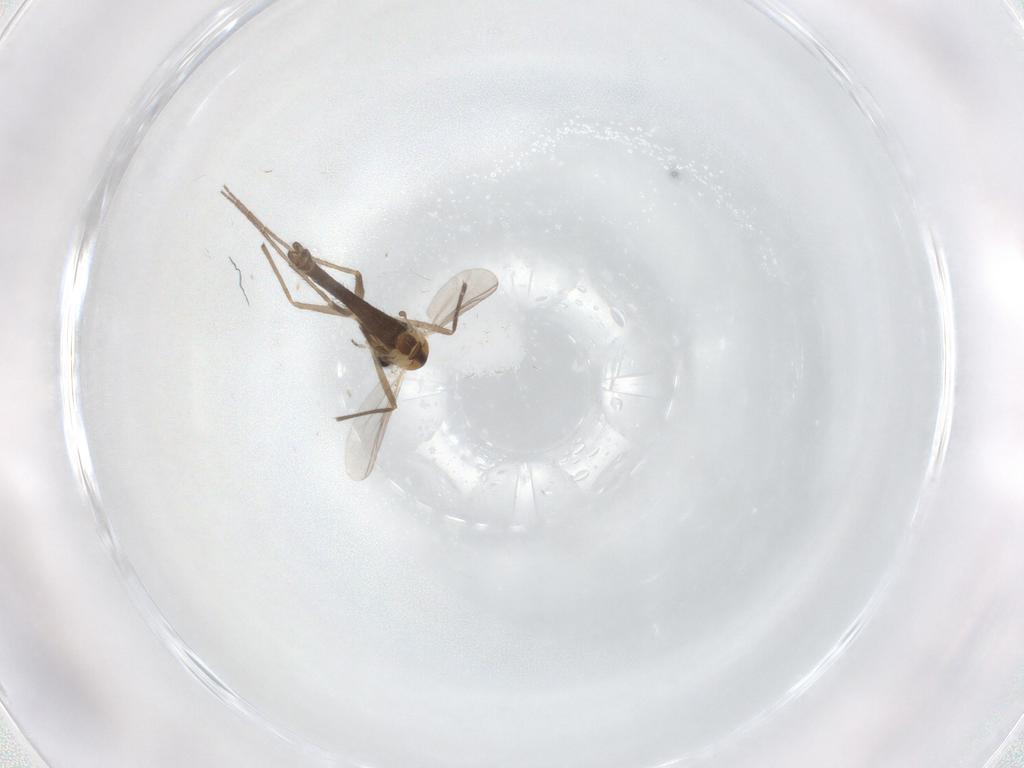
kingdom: Animalia
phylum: Arthropoda
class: Insecta
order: Diptera
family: Chironomidae
